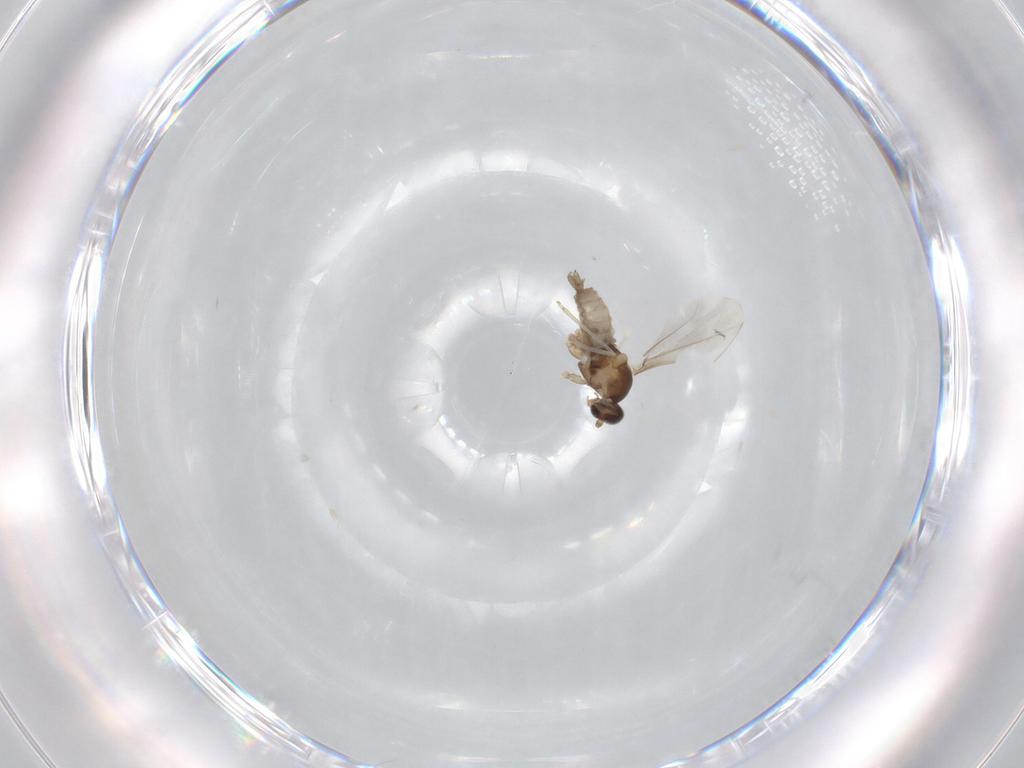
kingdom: Animalia
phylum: Arthropoda
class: Insecta
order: Diptera
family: Cecidomyiidae
